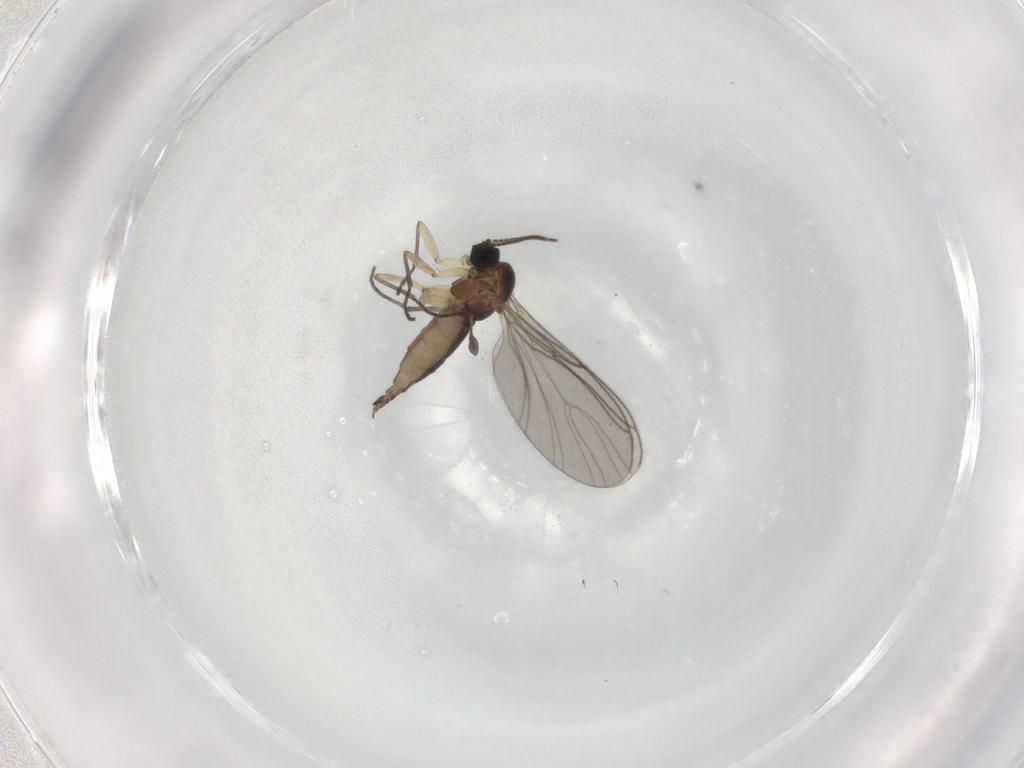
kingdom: Animalia
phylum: Arthropoda
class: Insecta
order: Diptera
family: Sciaridae
